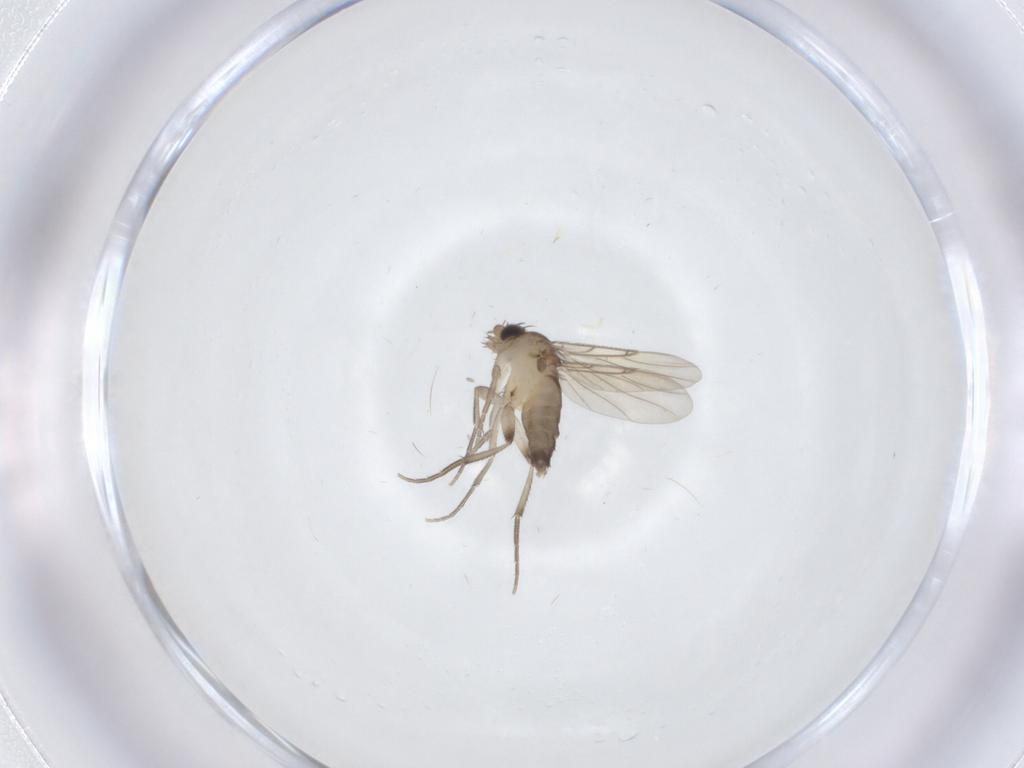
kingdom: Animalia
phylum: Arthropoda
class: Insecta
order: Diptera
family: Phoridae
